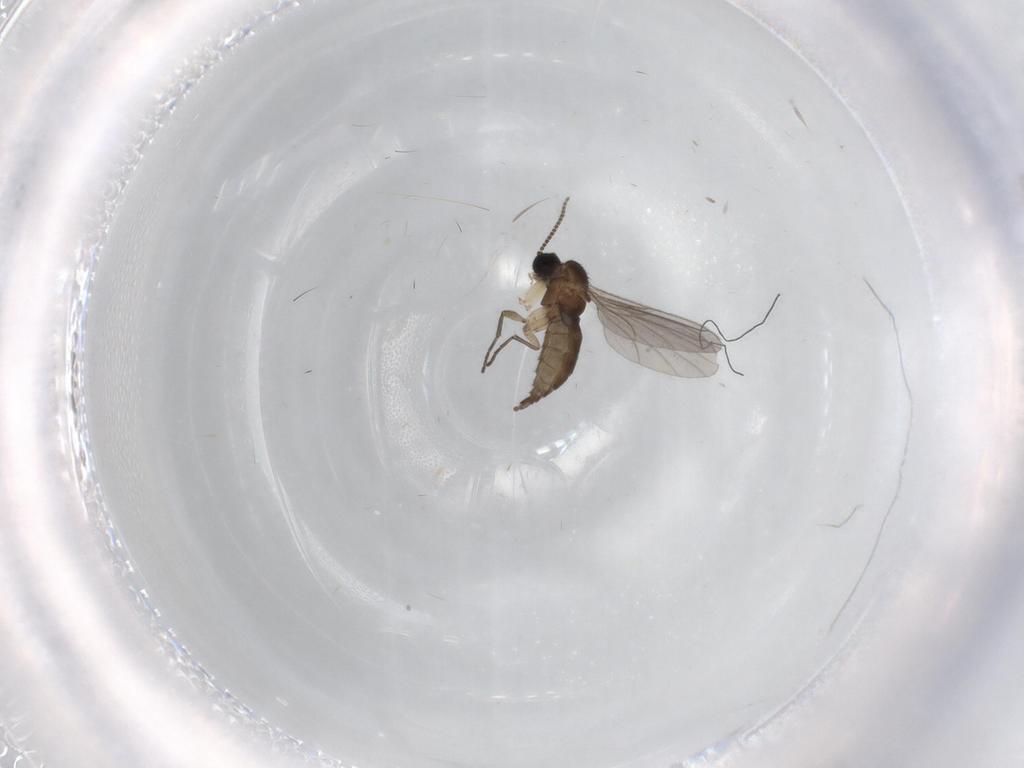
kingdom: Animalia
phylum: Arthropoda
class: Insecta
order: Diptera
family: Sciaridae
